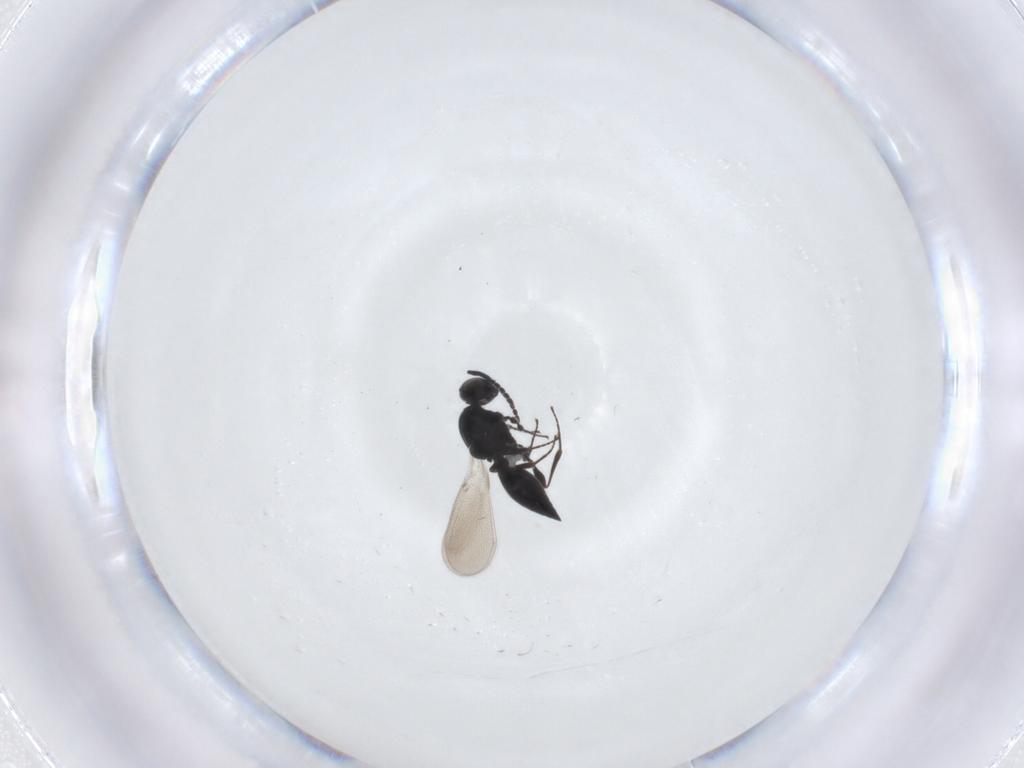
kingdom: Animalia
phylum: Arthropoda
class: Insecta
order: Hymenoptera
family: Platygastridae
